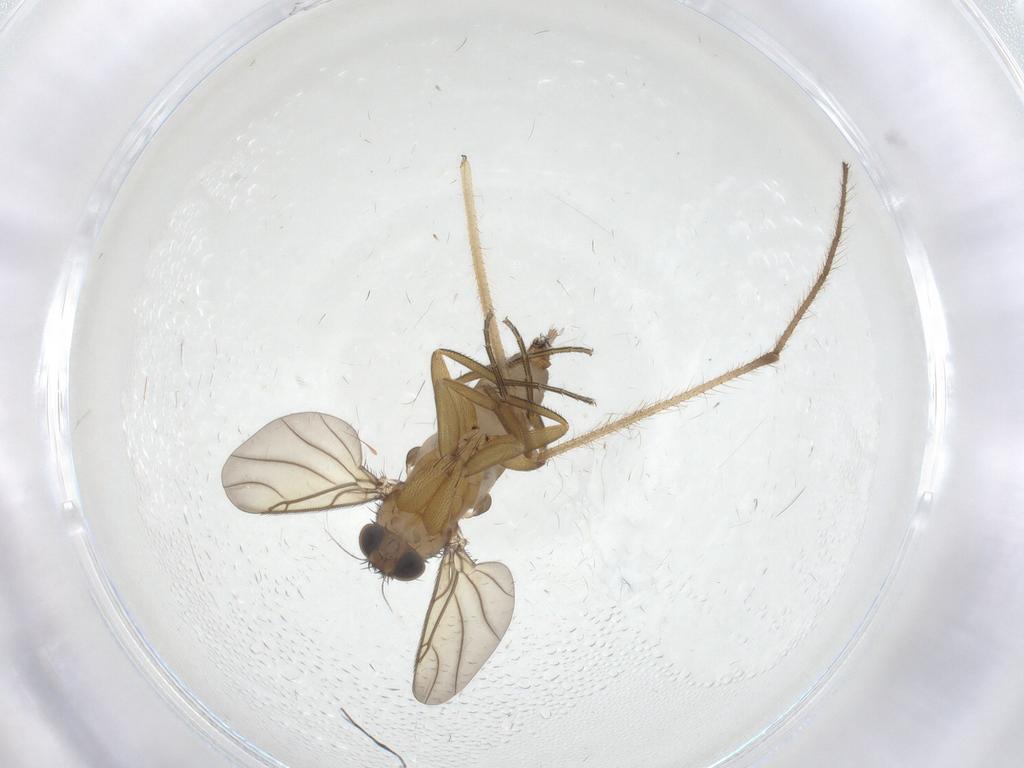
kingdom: Animalia
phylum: Arthropoda
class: Insecta
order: Diptera
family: Phoridae
